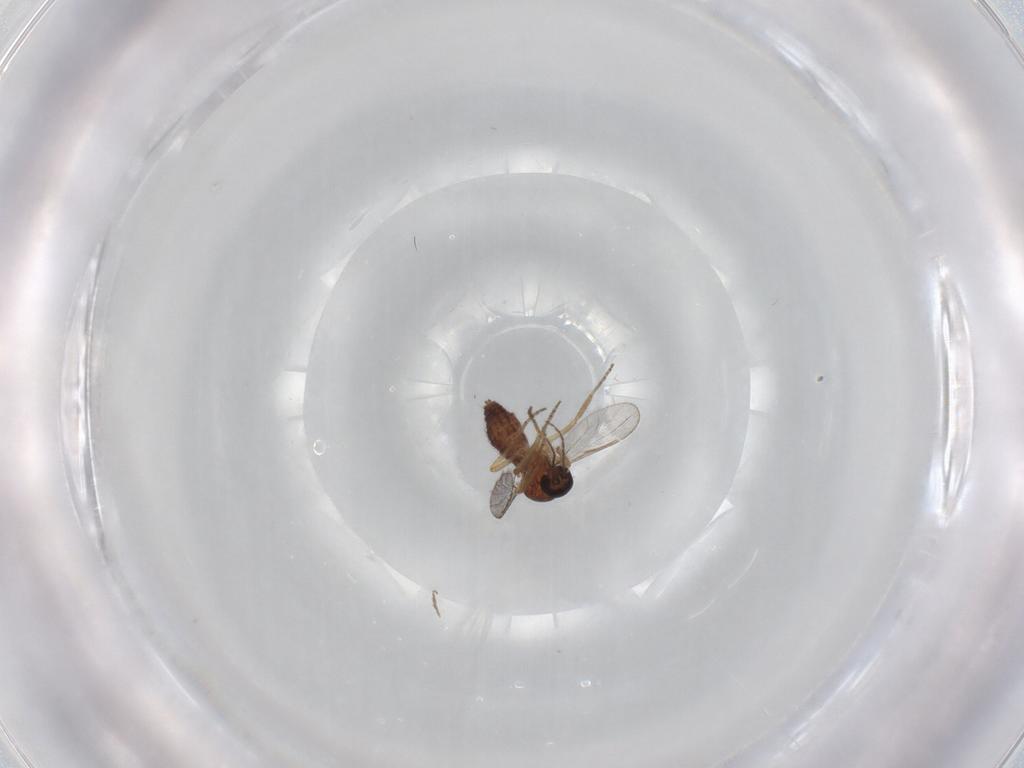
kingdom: Animalia
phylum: Arthropoda
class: Insecta
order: Diptera
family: Ceratopogonidae
